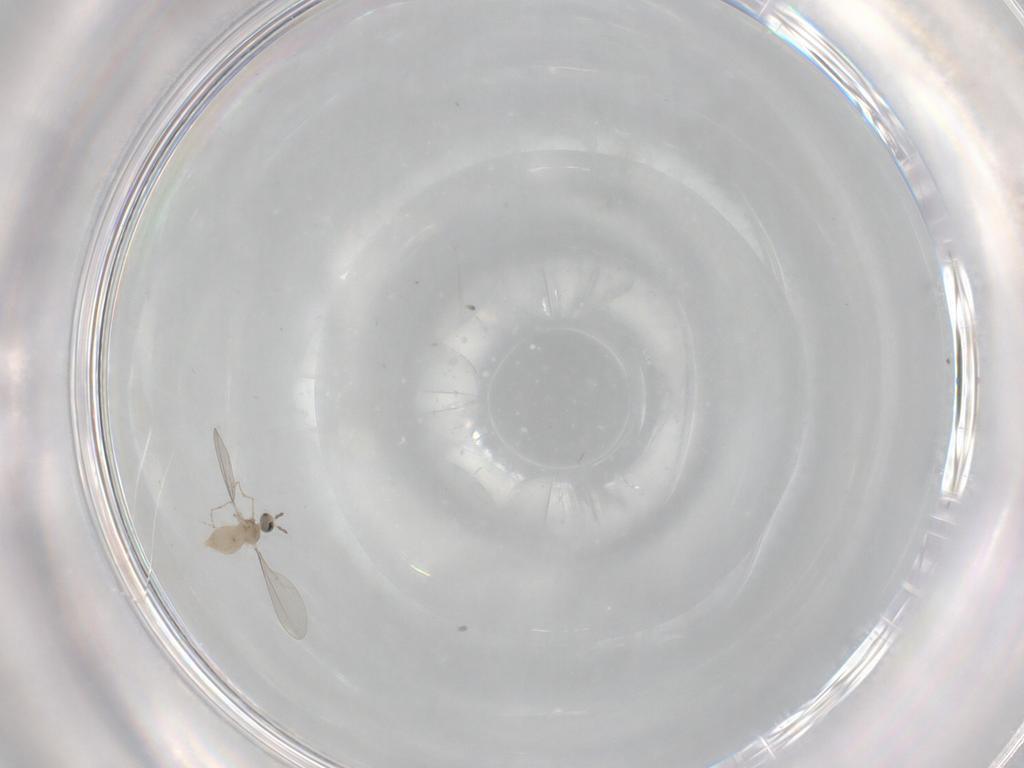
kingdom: Animalia
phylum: Arthropoda
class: Insecta
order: Diptera
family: Cecidomyiidae
